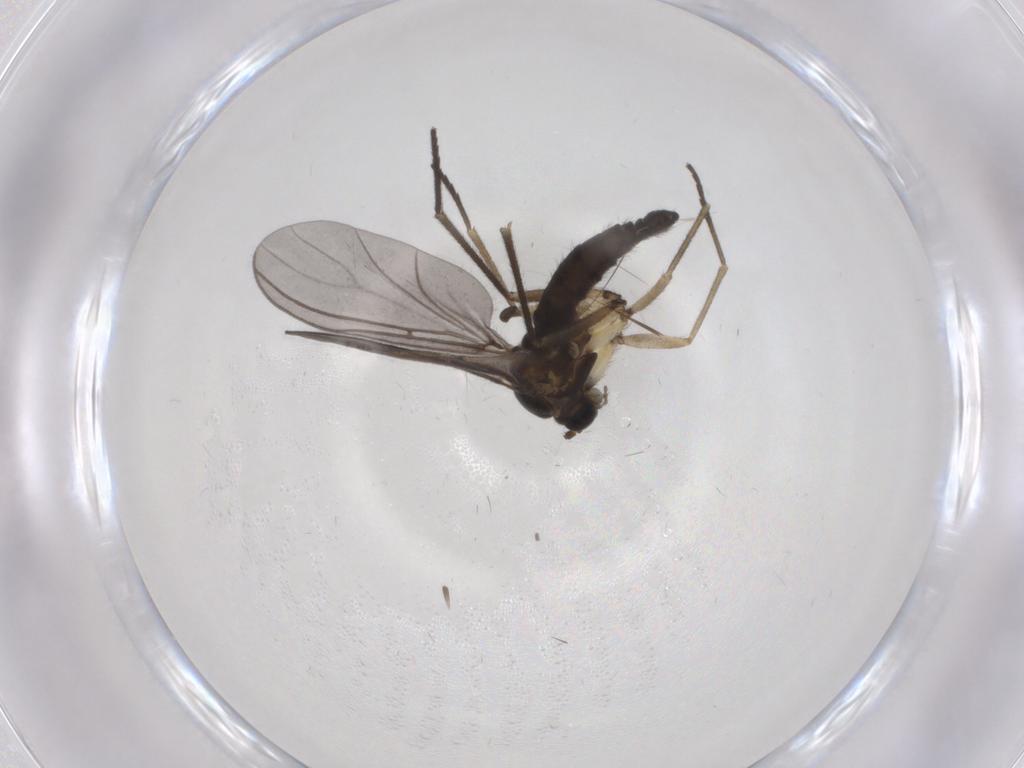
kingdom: Animalia
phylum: Arthropoda
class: Insecta
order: Diptera
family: Sciaridae
